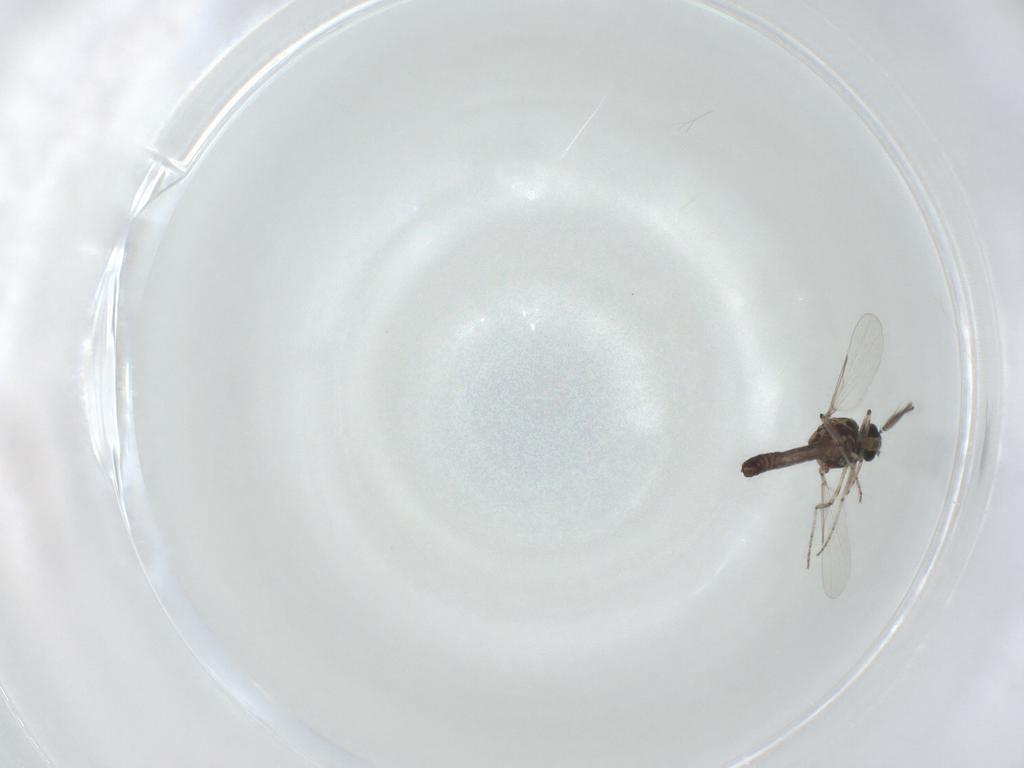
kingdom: Animalia
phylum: Arthropoda
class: Insecta
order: Diptera
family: Ceratopogonidae
